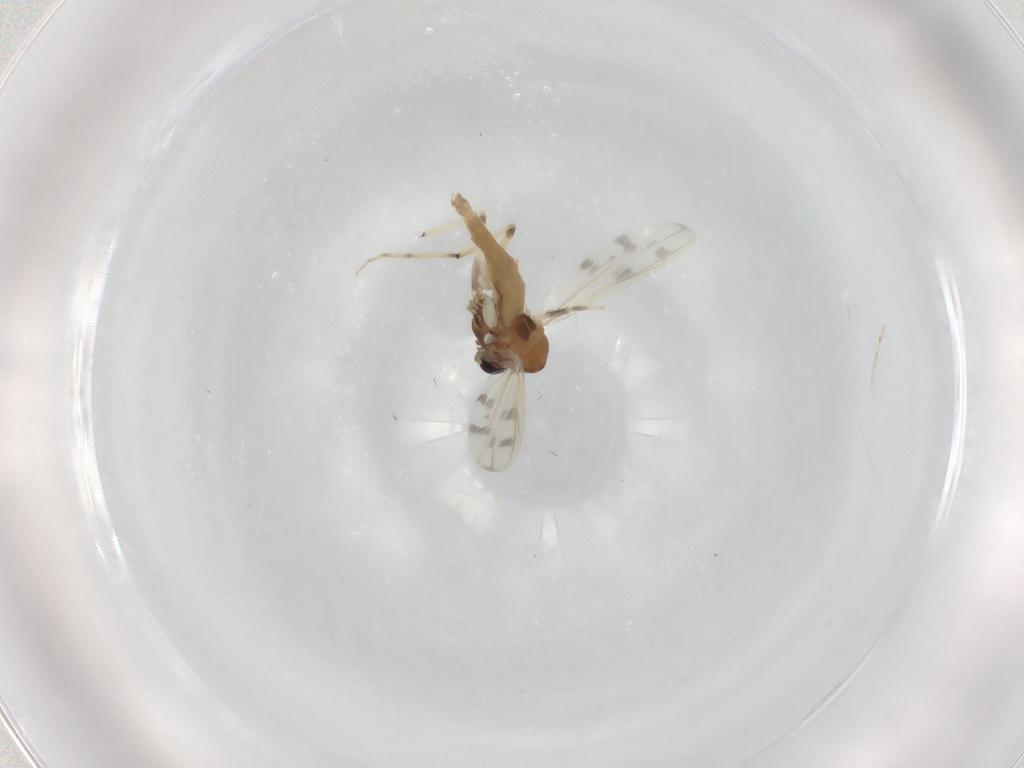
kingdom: Animalia
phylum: Arthropoda
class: Insecta
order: Diptera
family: Chironomidae
